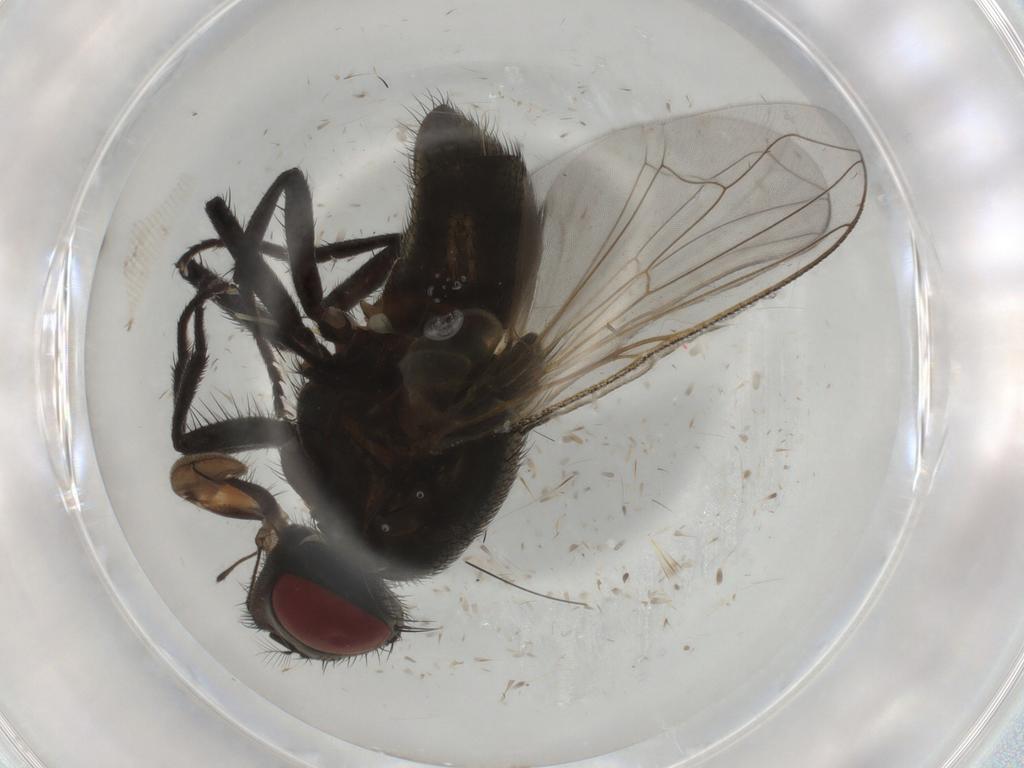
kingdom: Animalia
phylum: Arthropoda
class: Insecta
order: Diptera
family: Muscidae
